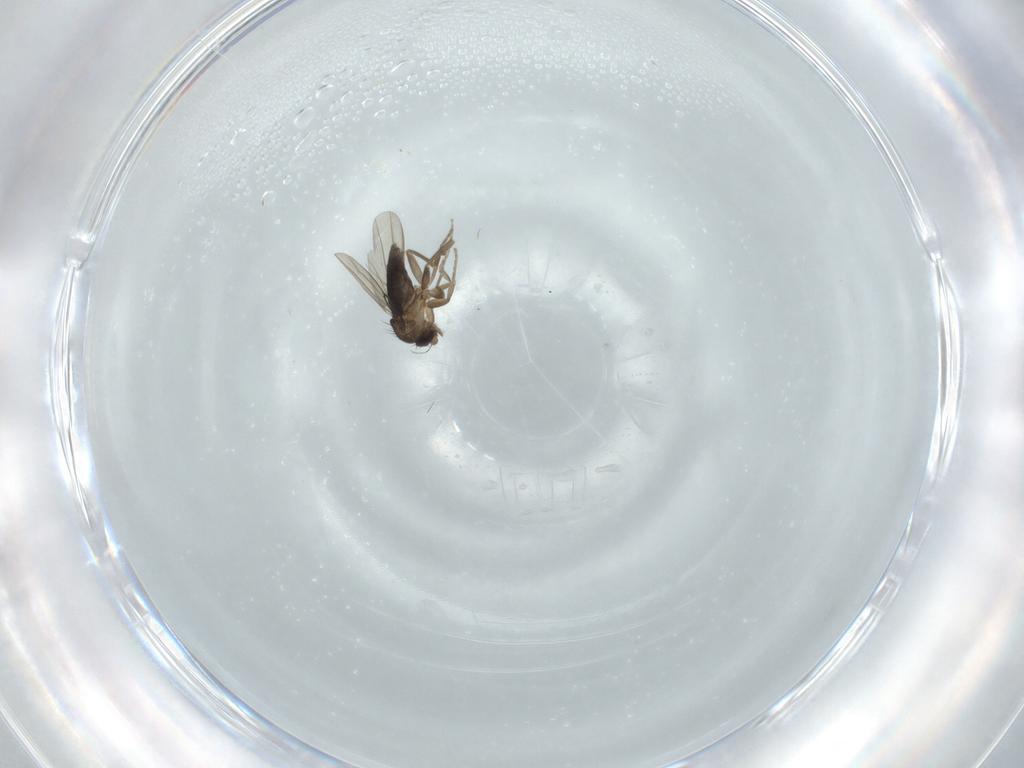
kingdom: Animalia
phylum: Arthropoda
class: Insecta
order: Diptera
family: Phoridae
